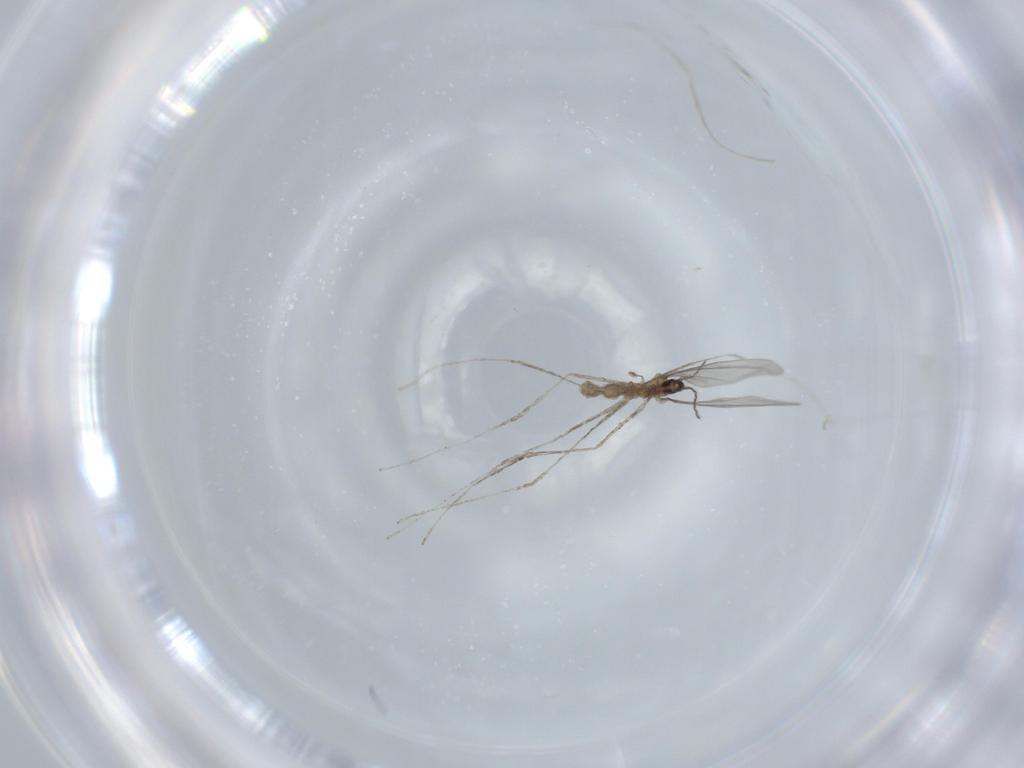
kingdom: Animalia
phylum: Arthropoda
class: Insecta
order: Diptera
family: Cecidomyiidae
